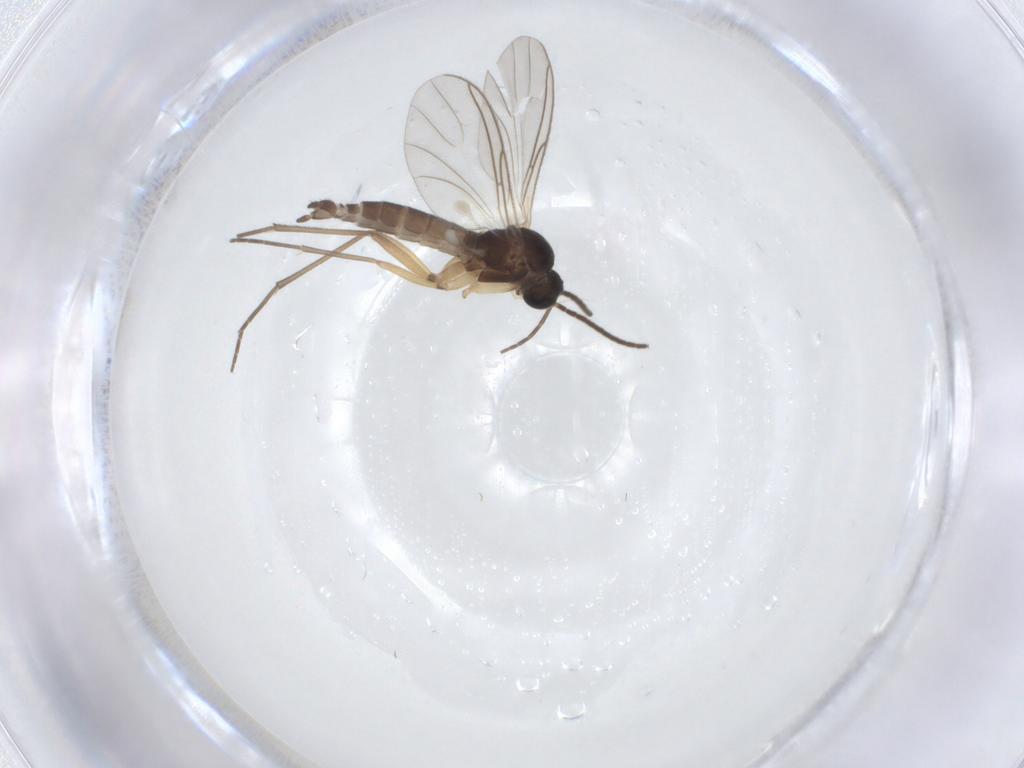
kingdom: Animalia
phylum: Arthropoda
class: Insecta
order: Diptera
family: Sciaridae
